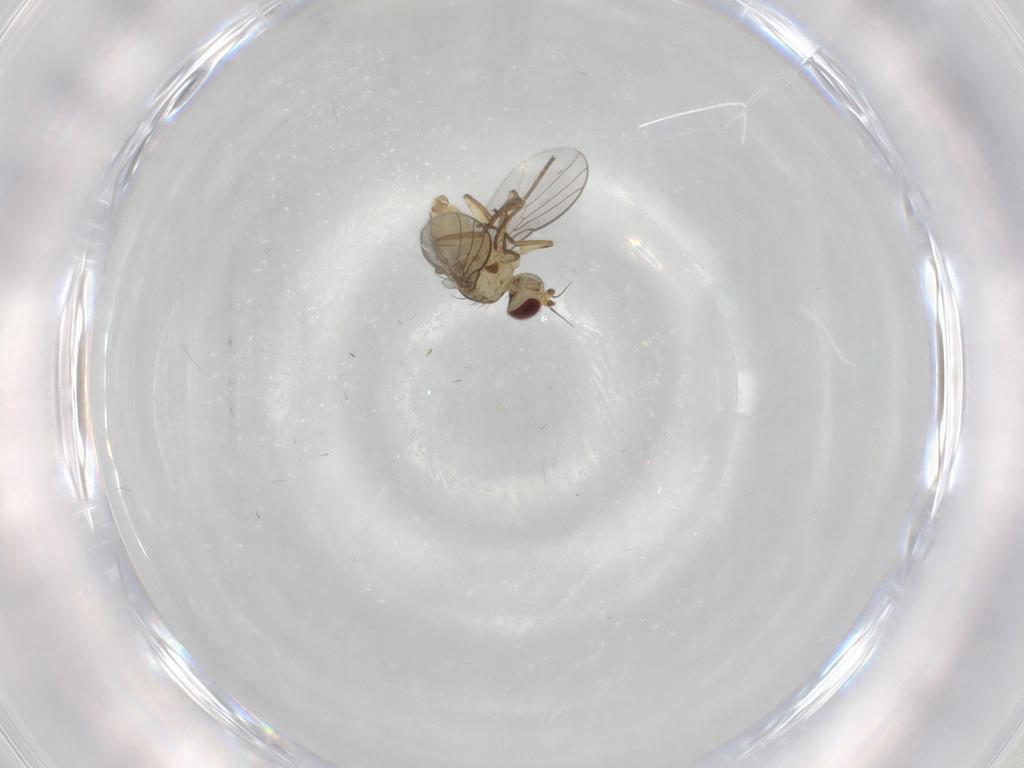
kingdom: Animalia
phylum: Arthropoda
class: Insecta
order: Diptera
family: Agromyzidae
